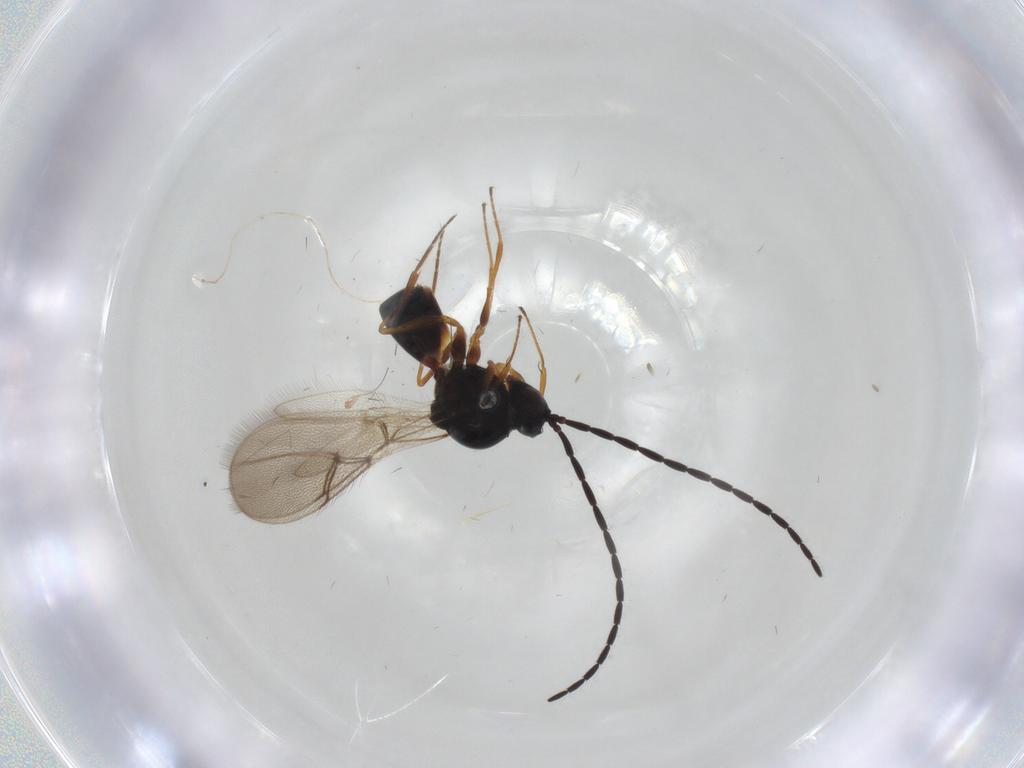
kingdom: Animalia
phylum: Arthropoda
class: Insecta
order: Hymenoptera
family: Figitidae
